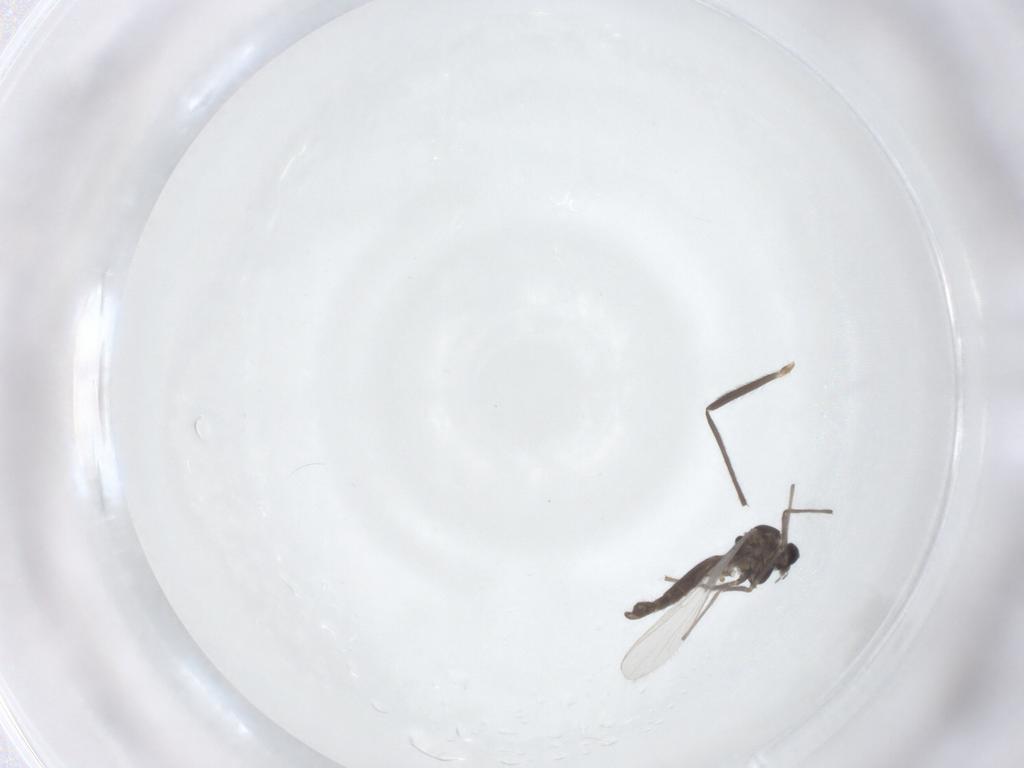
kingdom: Animalia
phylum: Arthropoda
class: Insecta
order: Diptera
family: Chironomidae
